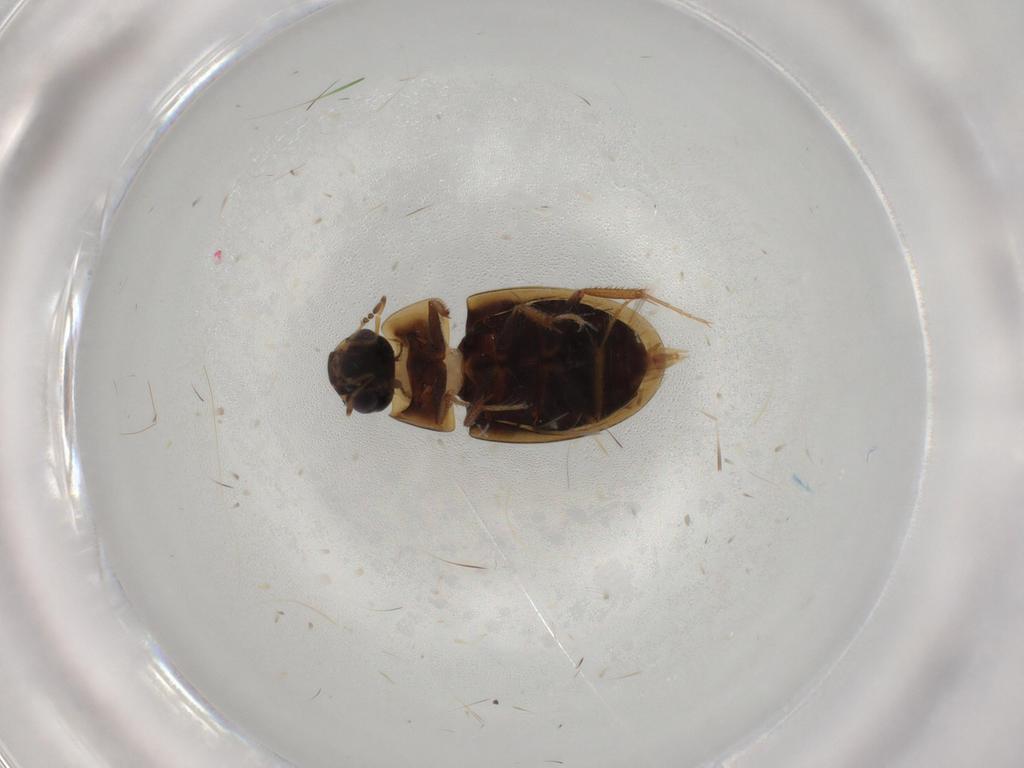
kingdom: Animalia
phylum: Arthropoda
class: Insecta
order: Coleoptera
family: Hydrophilidae
